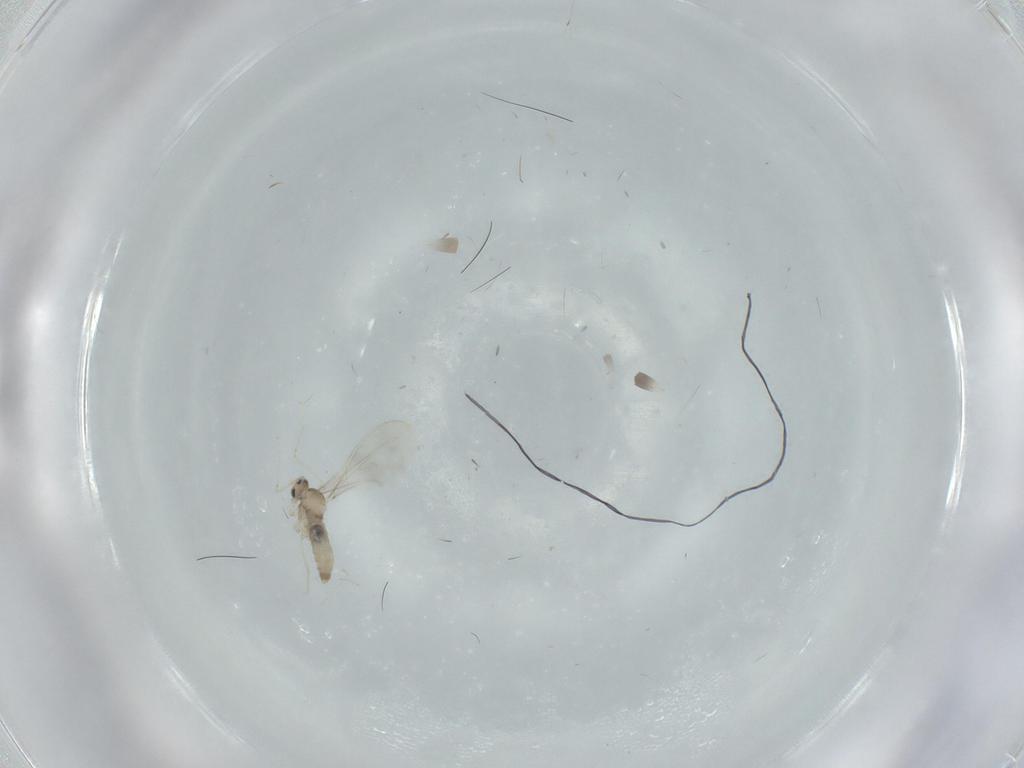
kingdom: Animalia
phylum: Arthropoda
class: Insecta
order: Diptera
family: Cecidomyiidae
